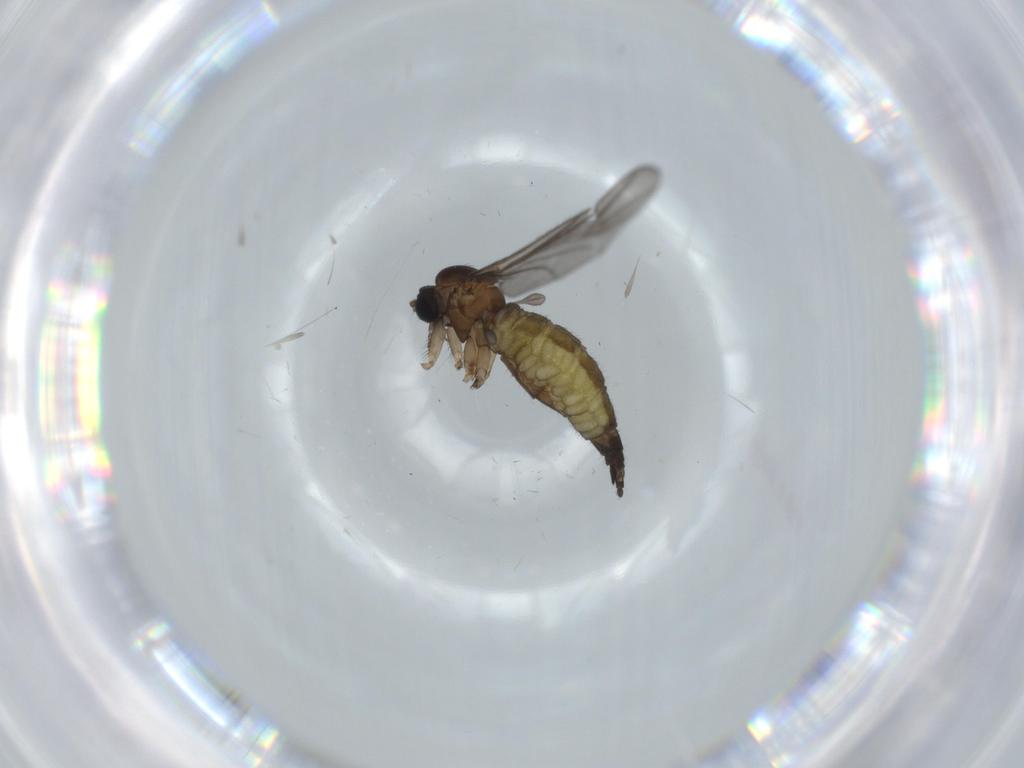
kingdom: Animalia
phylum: Arthropoda
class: Insecta
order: Diptera
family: Sciaridae
